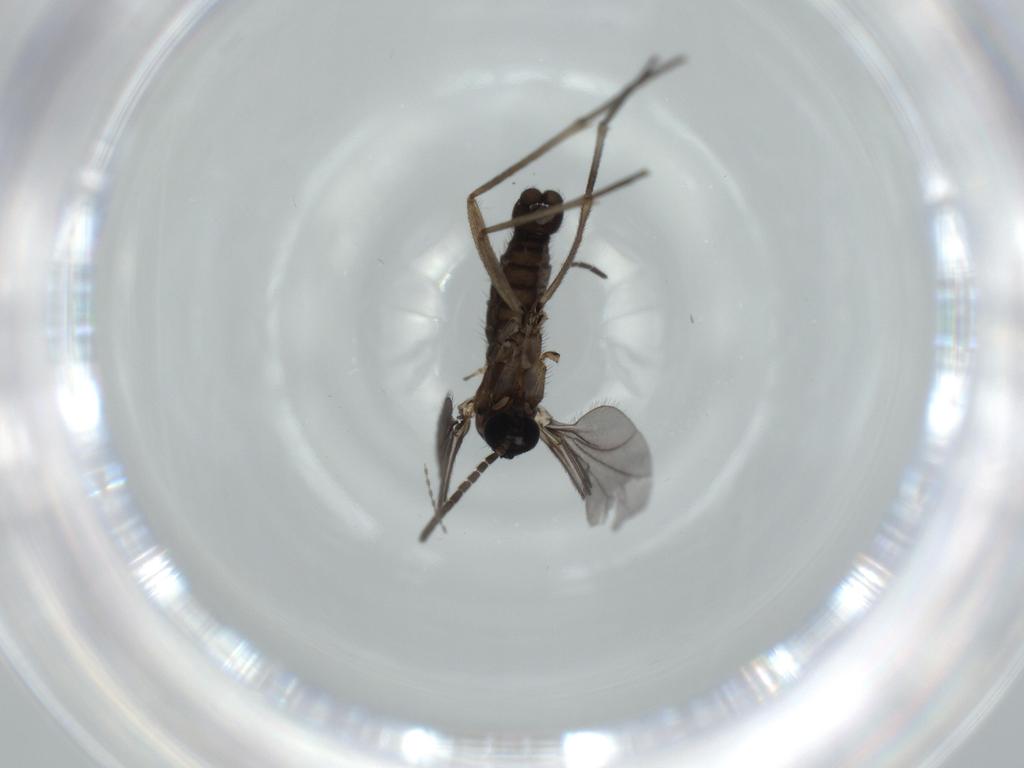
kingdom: Animalia
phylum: Arthropoda
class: Insecta
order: Diptera
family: Sciaridae
